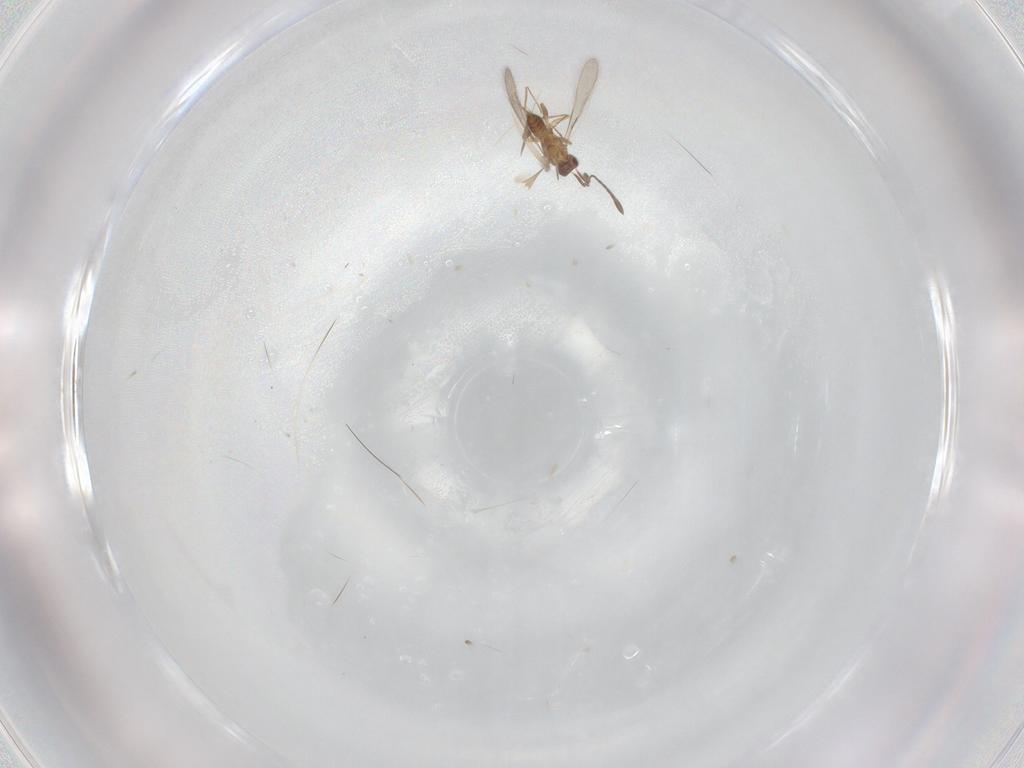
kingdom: Animalia
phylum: Arthropoda
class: Insecta
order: Hymenoptera
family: Mymaridae
